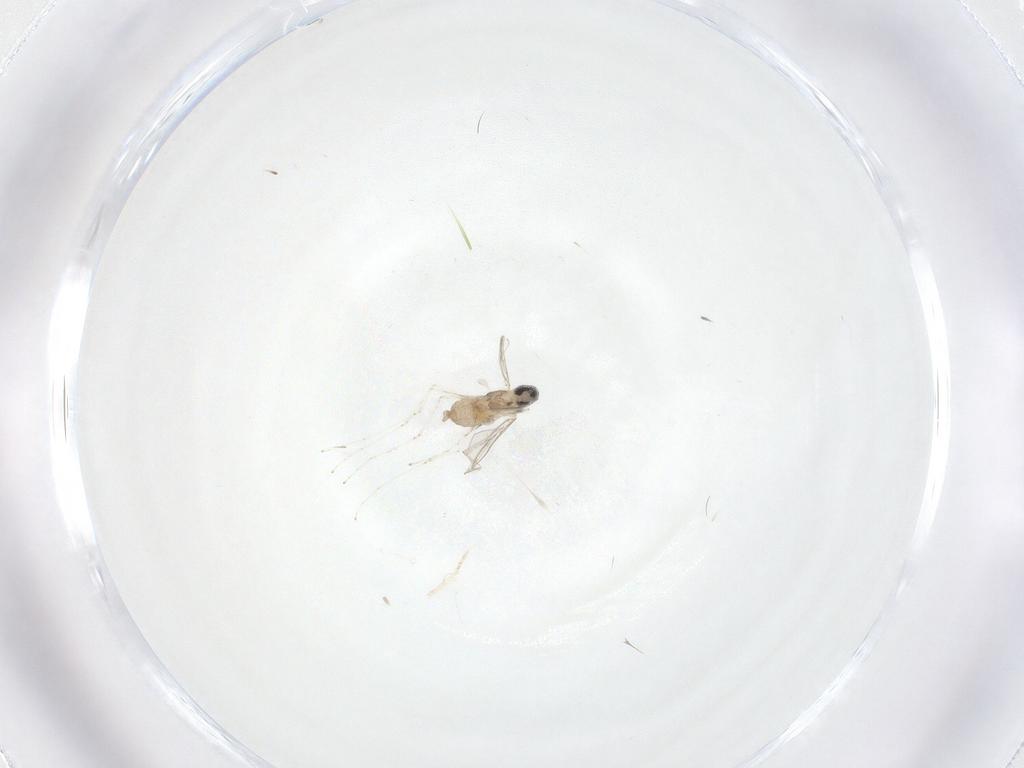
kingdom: Animalia
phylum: Arthropoda
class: Insecta
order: Diptera
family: Cecidomyiidae
